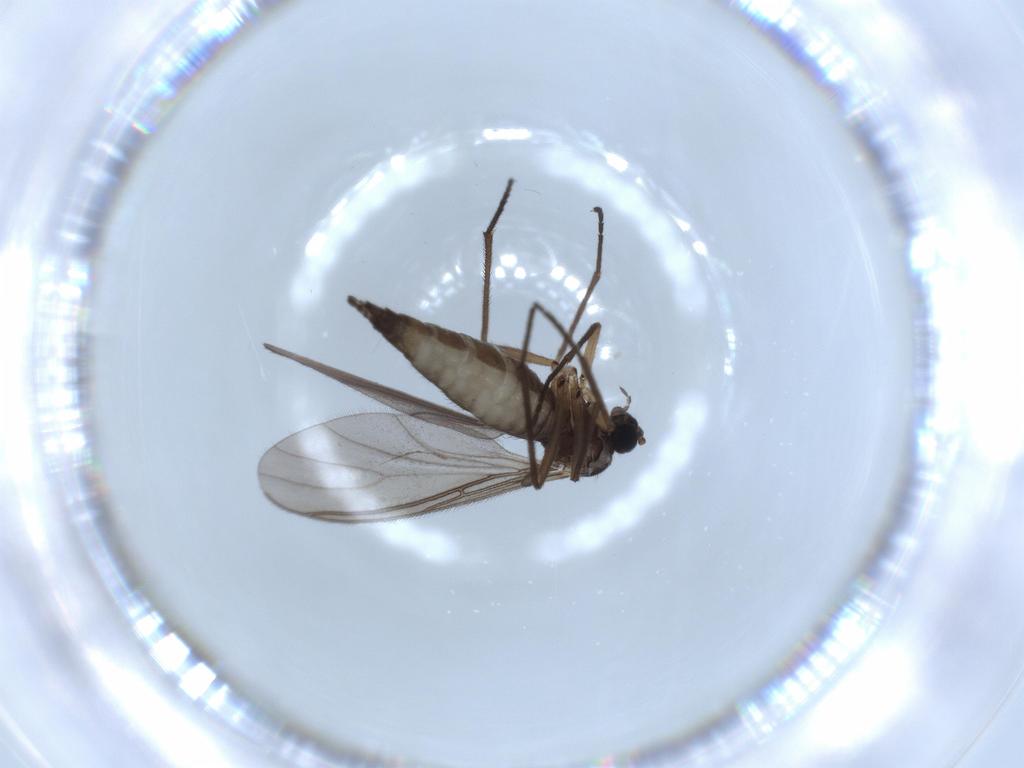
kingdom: Animalia
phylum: Arthropoda
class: Insecta
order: Diptera
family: Sciaridae
